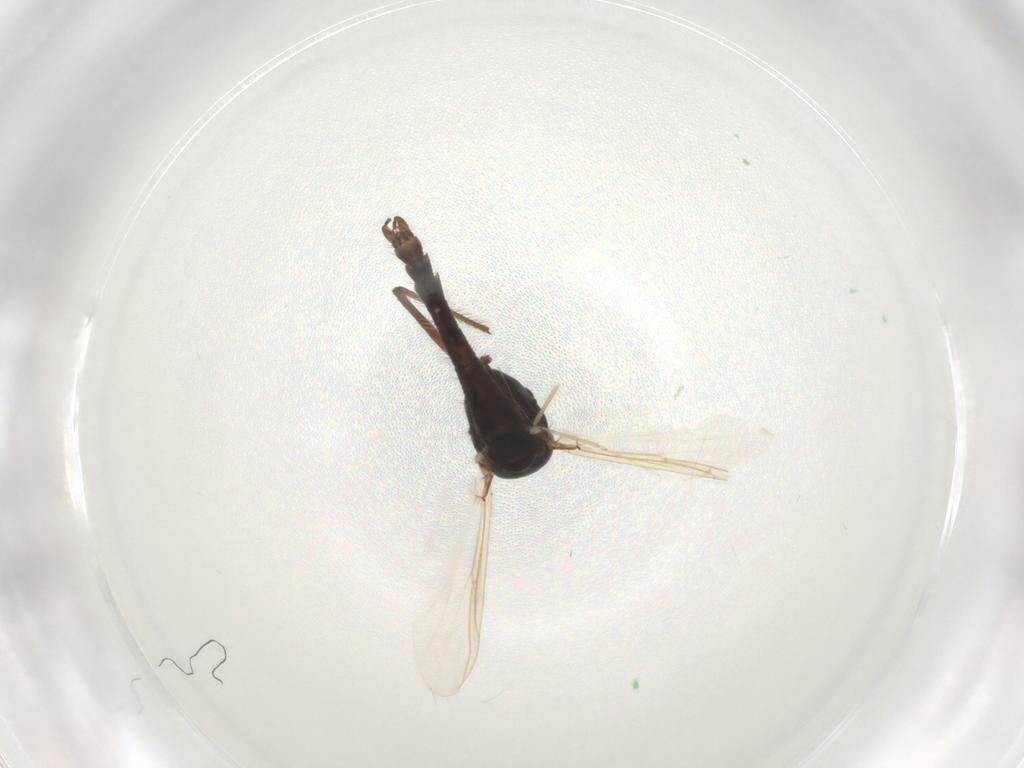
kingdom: Animalia
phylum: Arthropoda
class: Insecta
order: Diptera
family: Chironomidae
